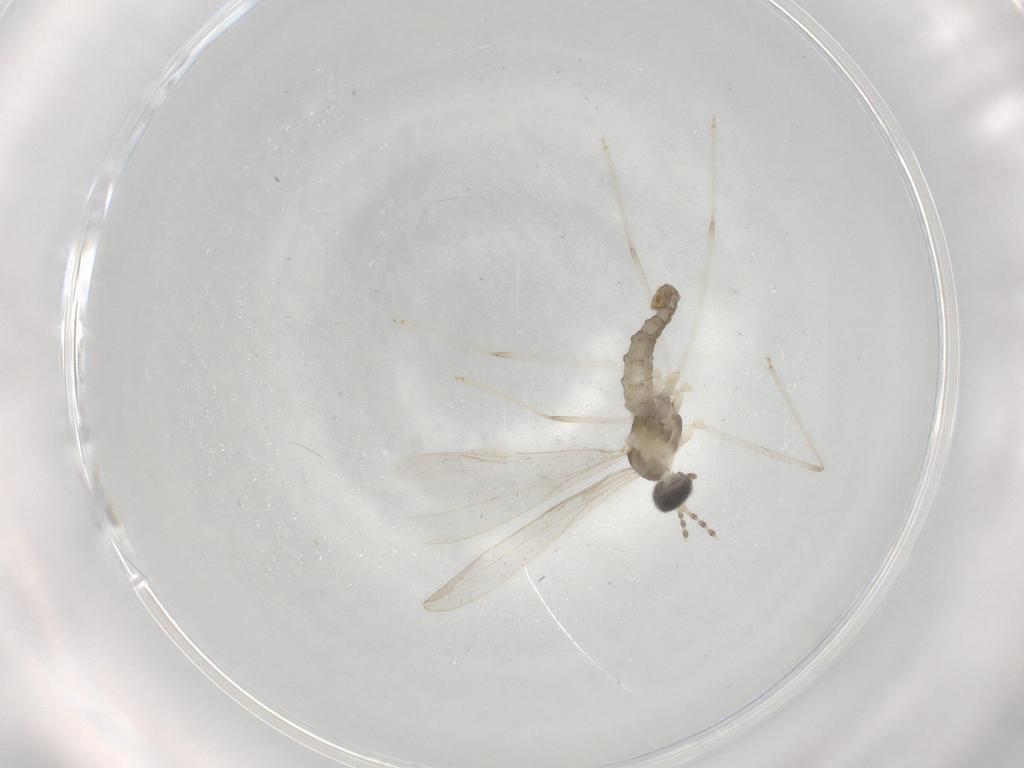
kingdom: Animalia
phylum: Arthropoda
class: Insecta
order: Diptera
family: Cecidomyiidae
